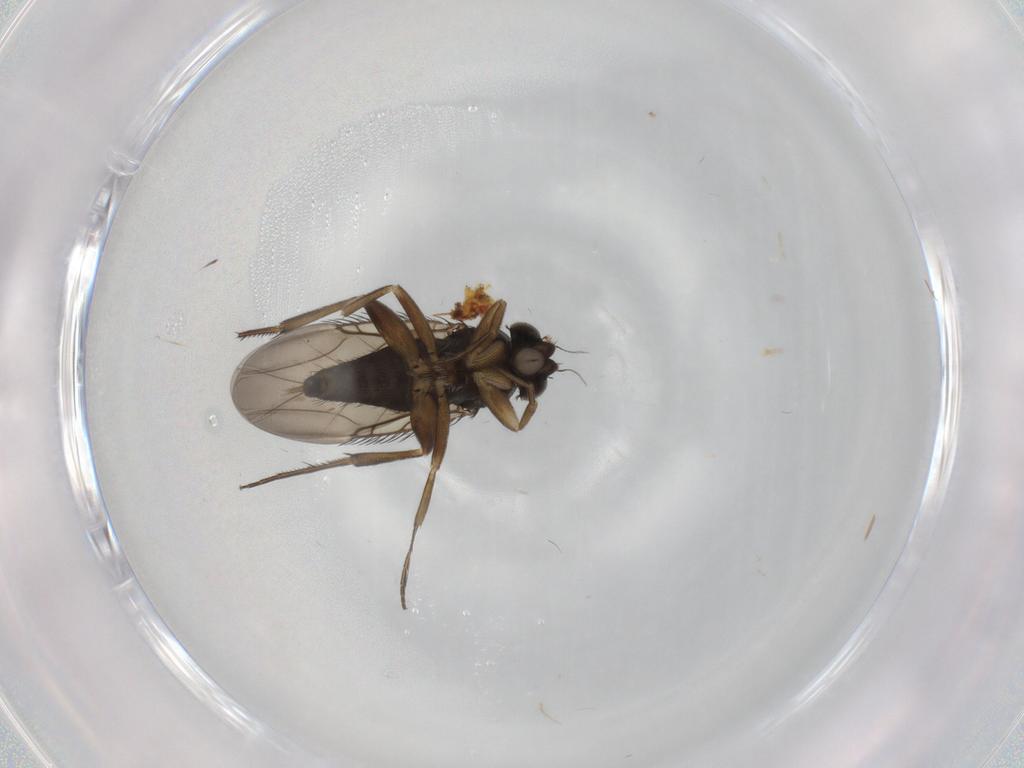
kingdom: Animalia
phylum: Arthropoda
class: Insecta
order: Diptera
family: Phoridae
